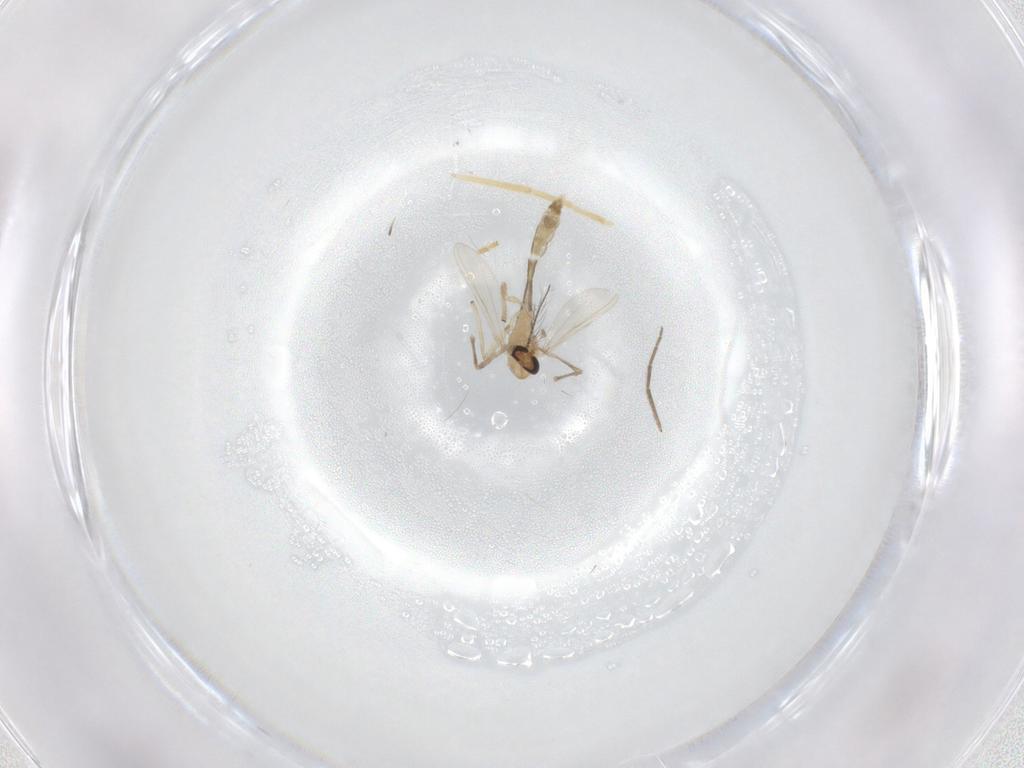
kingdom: Animalia
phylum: Arthropoda
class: Insecta
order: Diptera
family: Chironomidae
